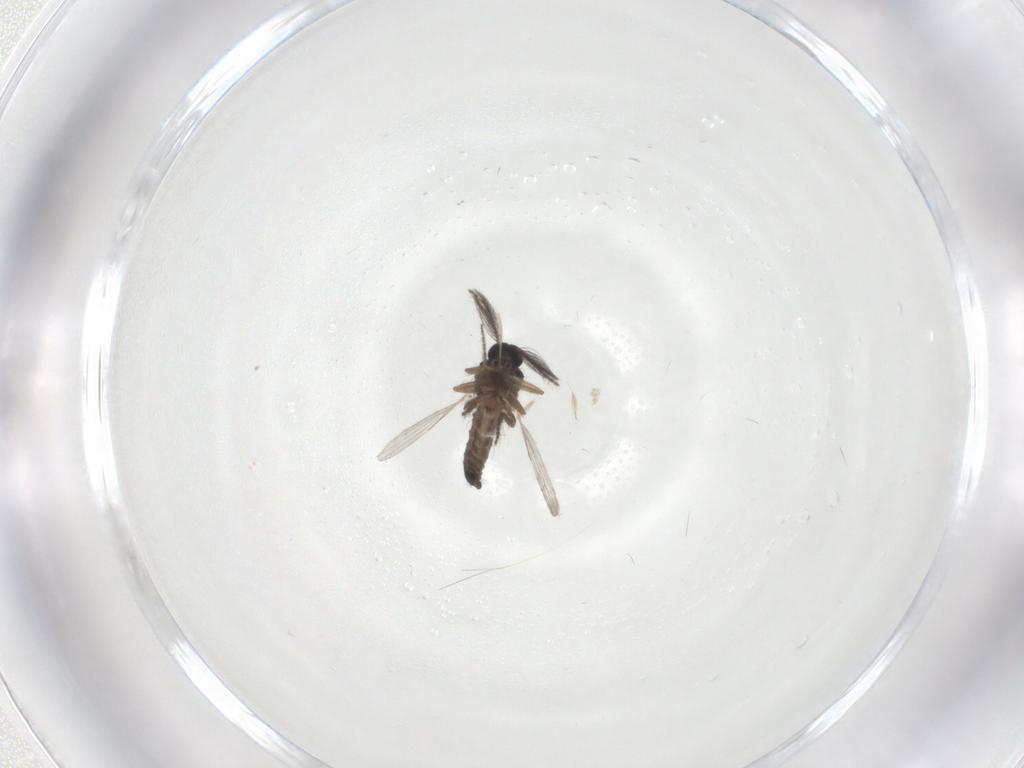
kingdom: Animalia
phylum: Arthropoda
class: Insecta
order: Diptera
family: Ceratopogonidae
